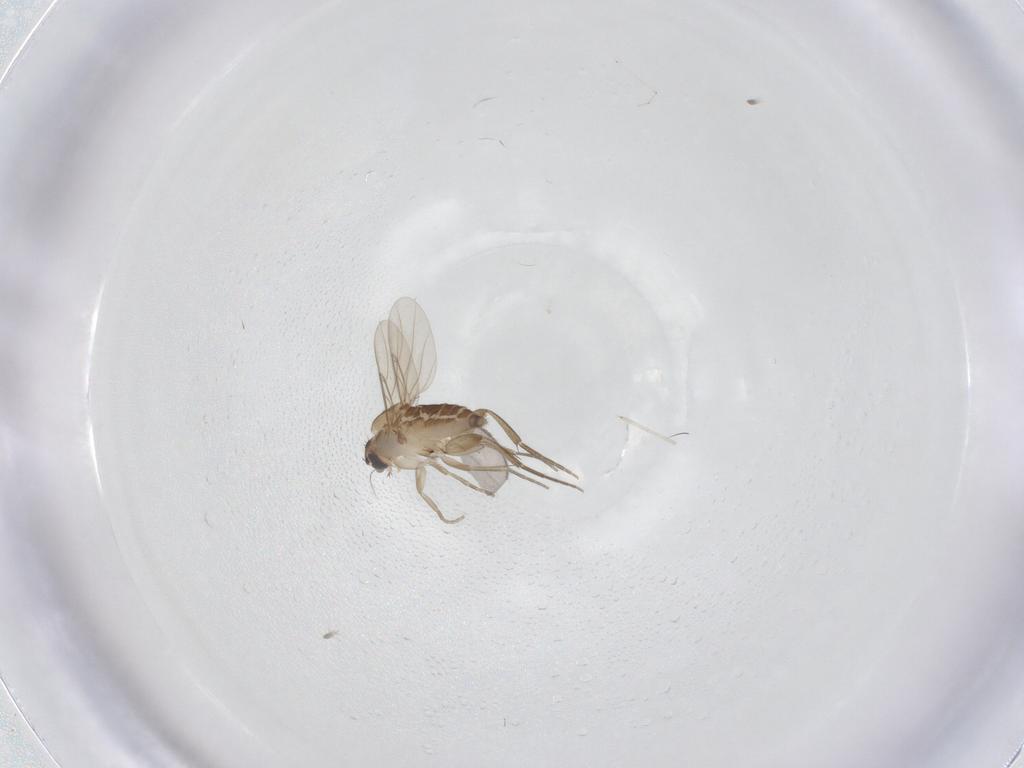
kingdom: Animalia
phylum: Arthropoda
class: Insecta
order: Diptera
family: Phoridae
